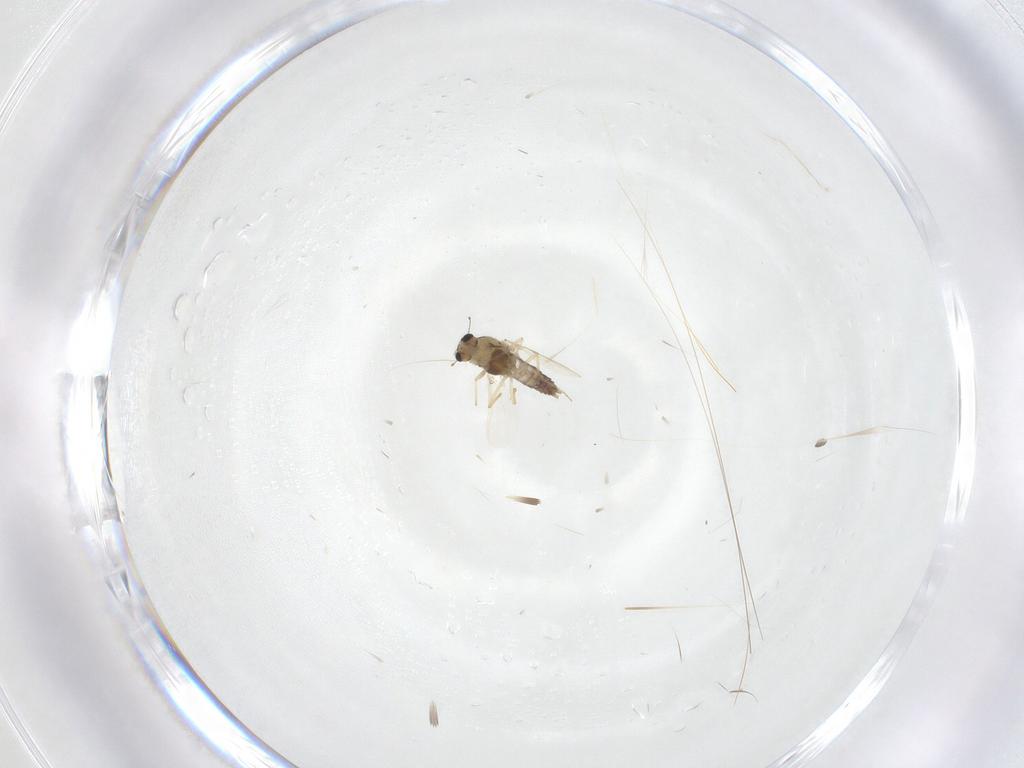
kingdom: Animalia
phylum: Arthropoda
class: Insecta
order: Diptera
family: Chironomidae
